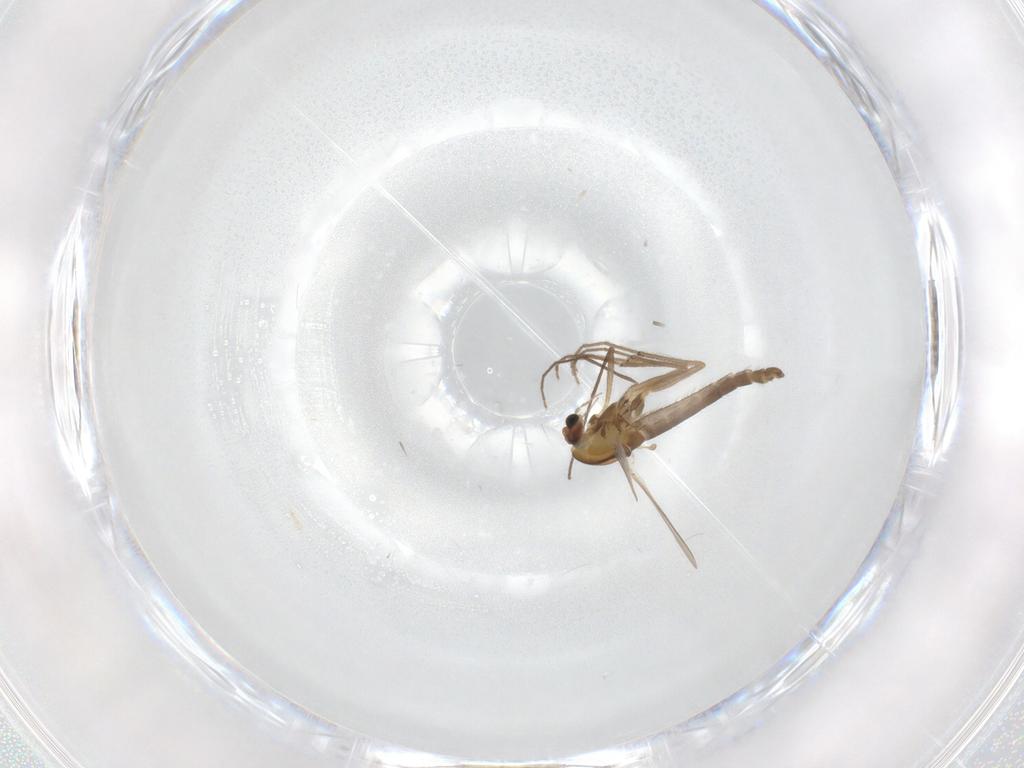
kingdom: Animalia
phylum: Arthropoda
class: Insecta
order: Diptera
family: Chironomidae
